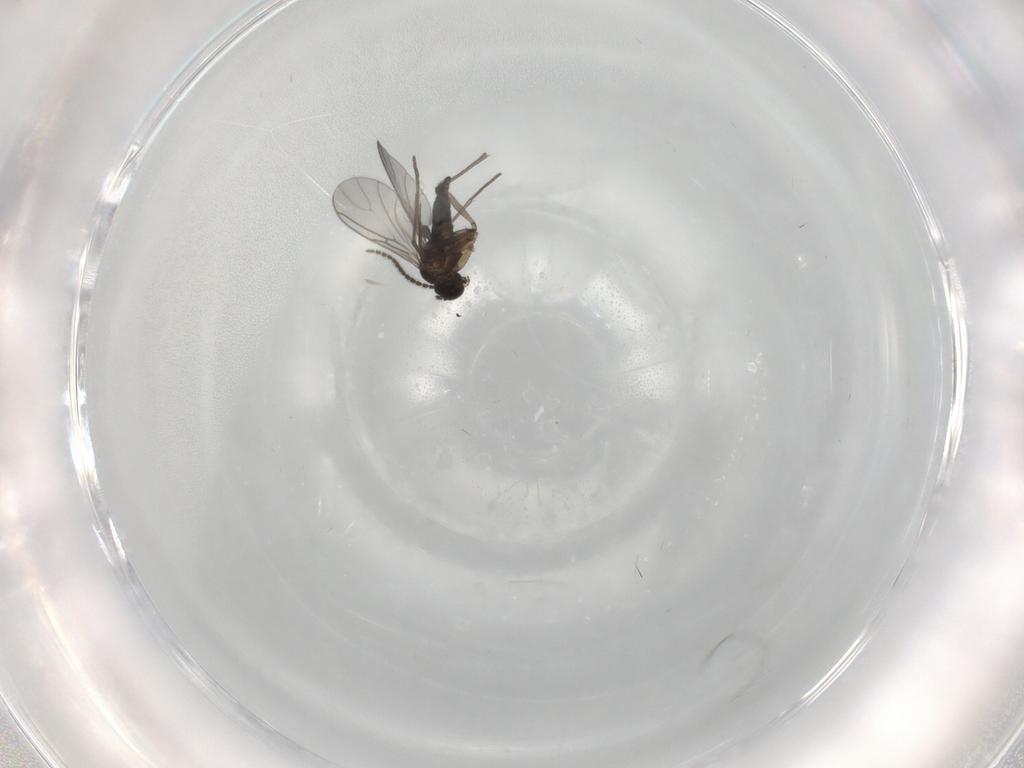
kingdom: Animalia
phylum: Arthropoda
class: Insecta
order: Diptera
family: Sciaridae
